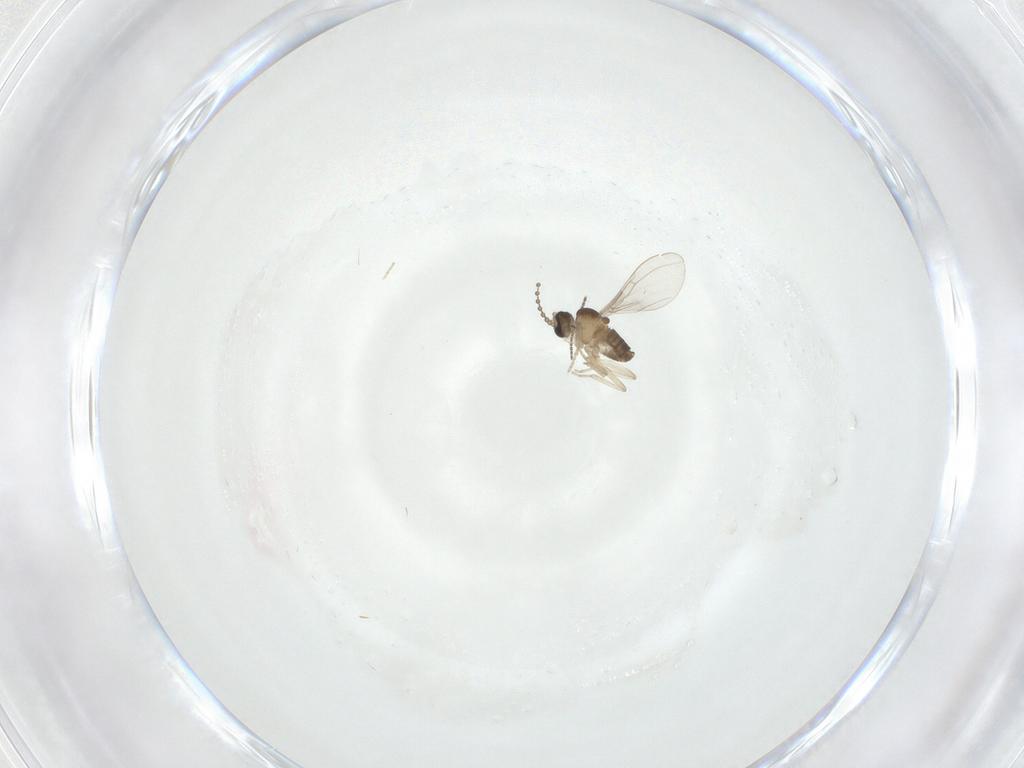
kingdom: Animalia
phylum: Arthropoda
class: Insecta
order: Diptera
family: Cecidomyiidae
